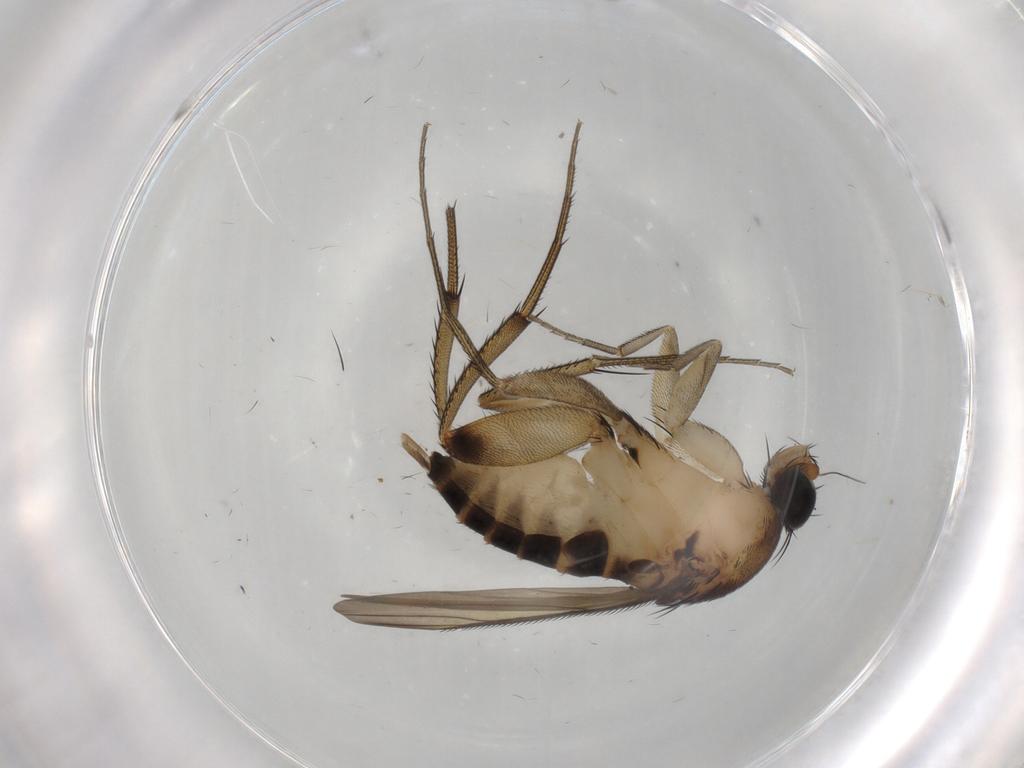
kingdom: Animalia
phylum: Arthropoda
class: Insecta
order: Diptera
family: Phoridae
